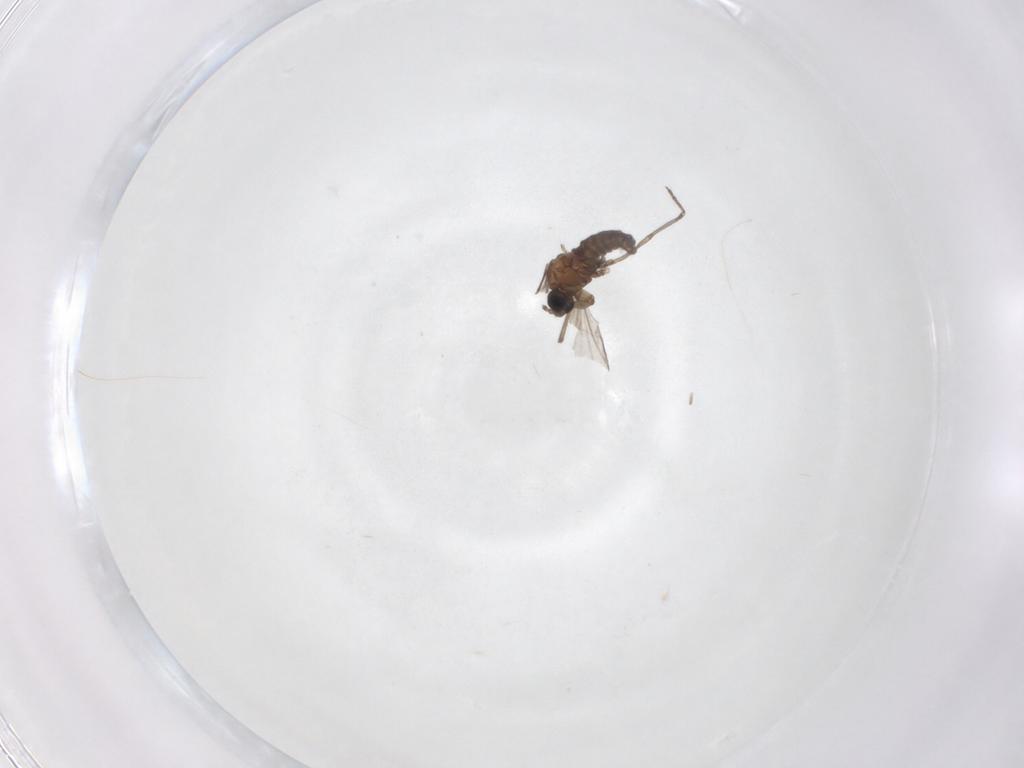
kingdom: Animalia
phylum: Arthropoda
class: Insecta
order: Diptera
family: Sciaridae
